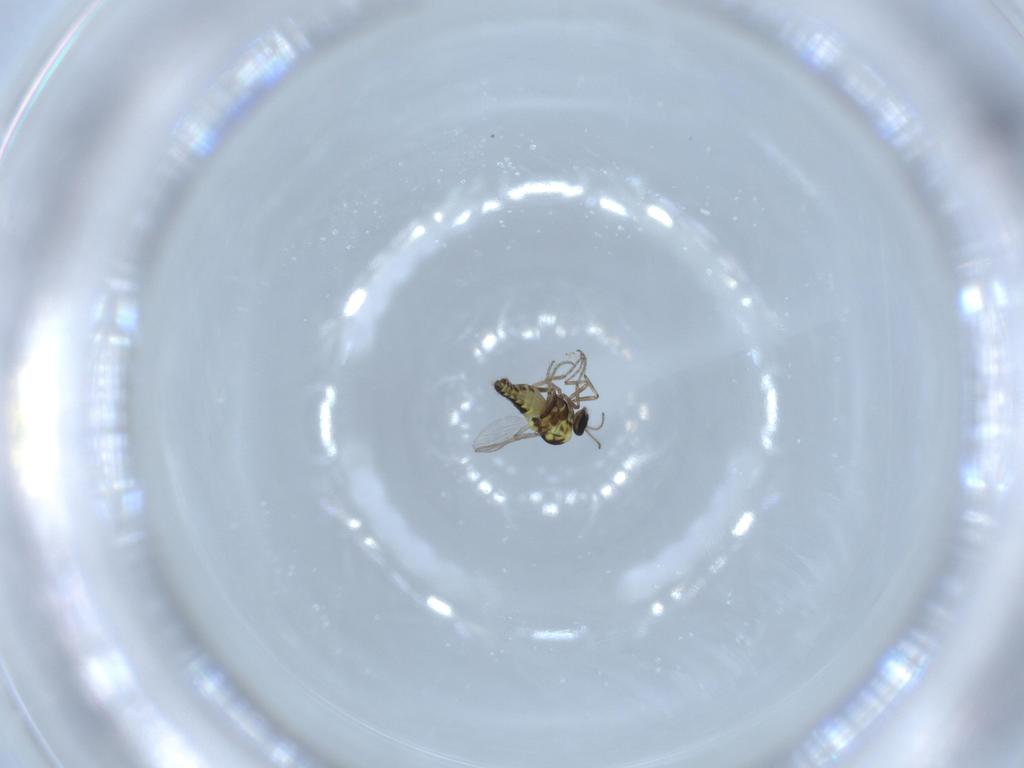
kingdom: Animalia
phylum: Arthropoda
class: Insecta
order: Diptera
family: Ceratopogonidae
